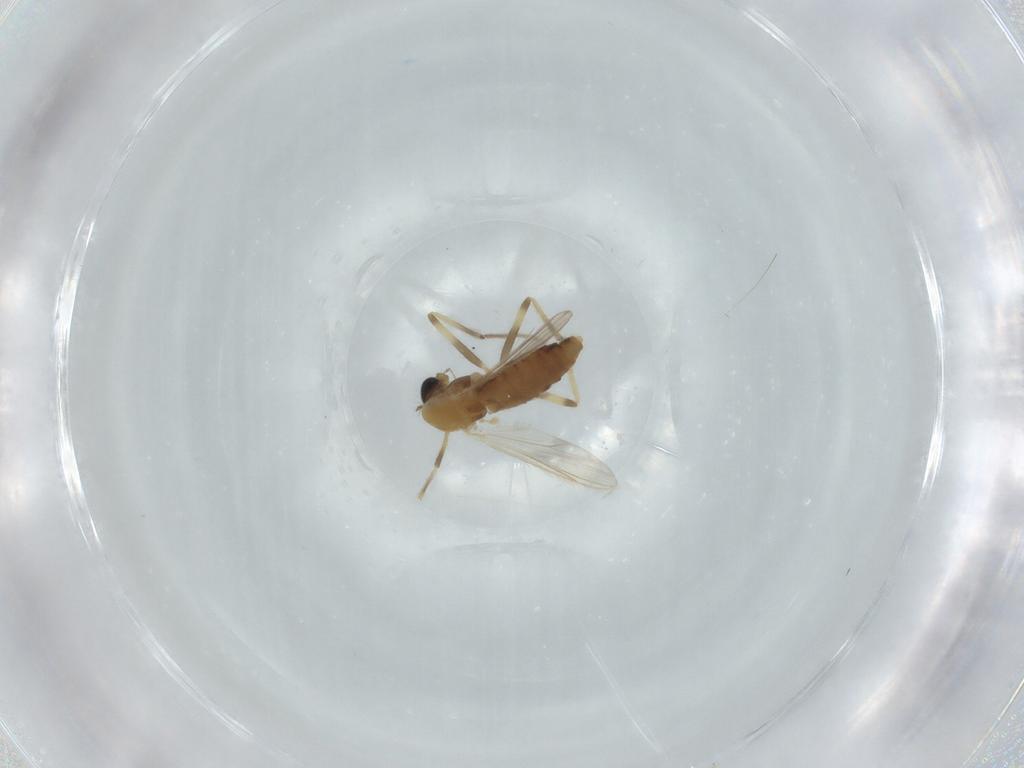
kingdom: Animalia
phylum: Arthropoda
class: Insecta
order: Diptera
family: Chironomidae
